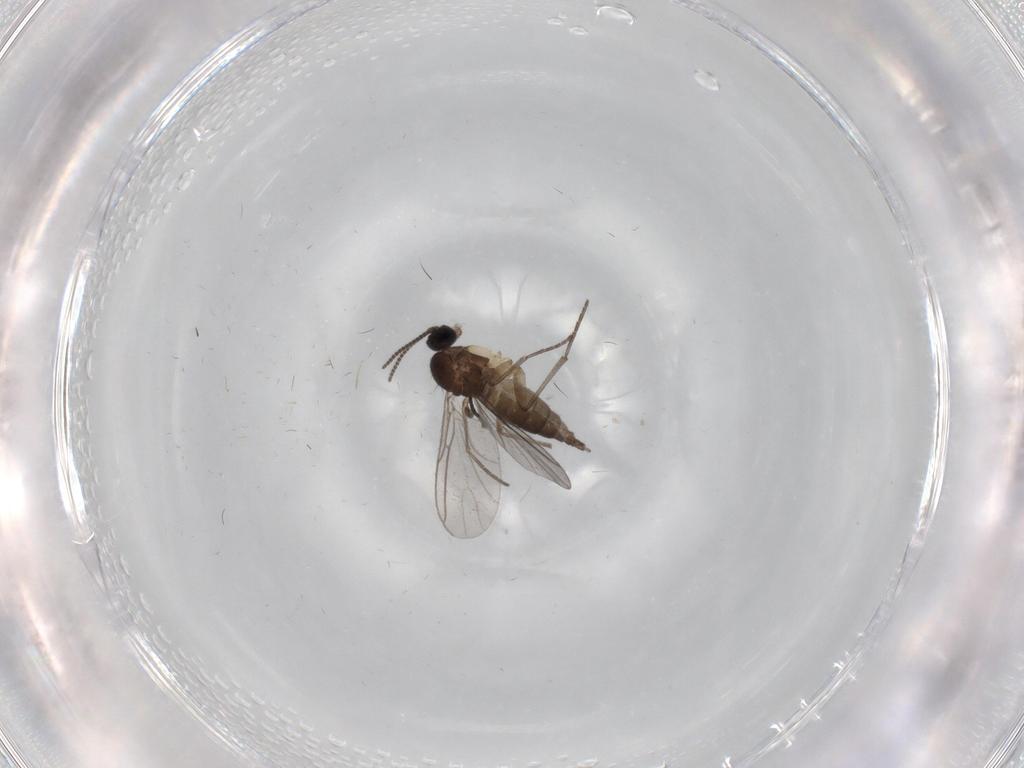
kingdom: Animalia
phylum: Arthropoda
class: Insecta
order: Diptera
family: Sciaridae
